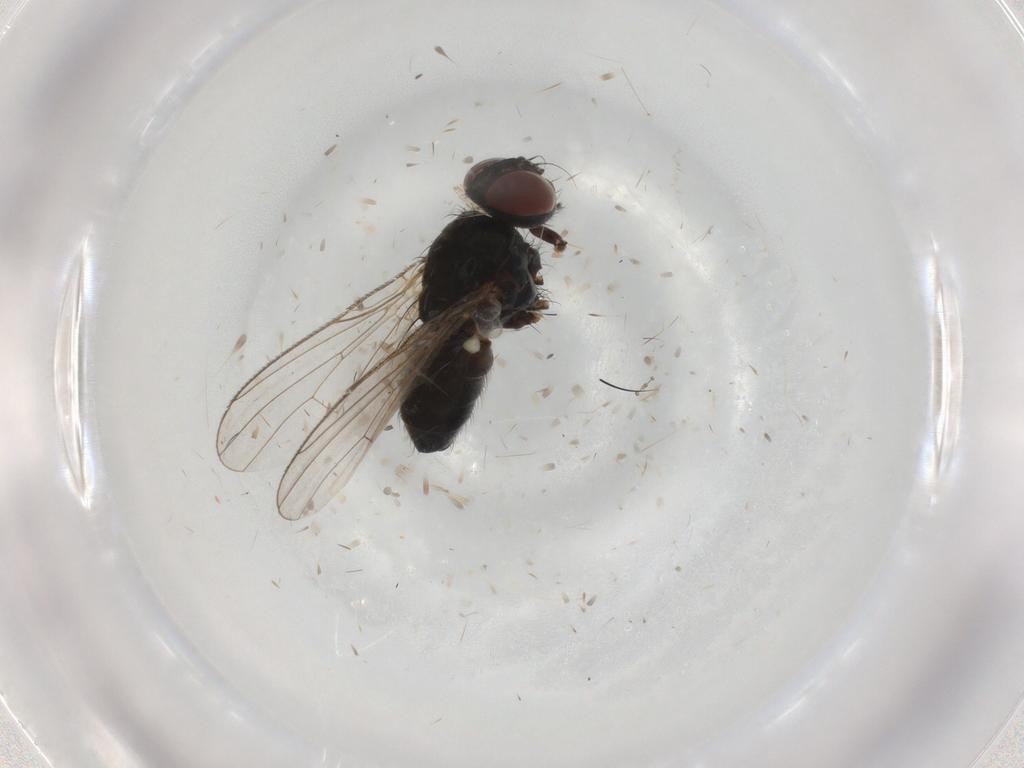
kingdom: Animalia
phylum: Arthropoda
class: Insecta
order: Diptera
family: Muscidae
